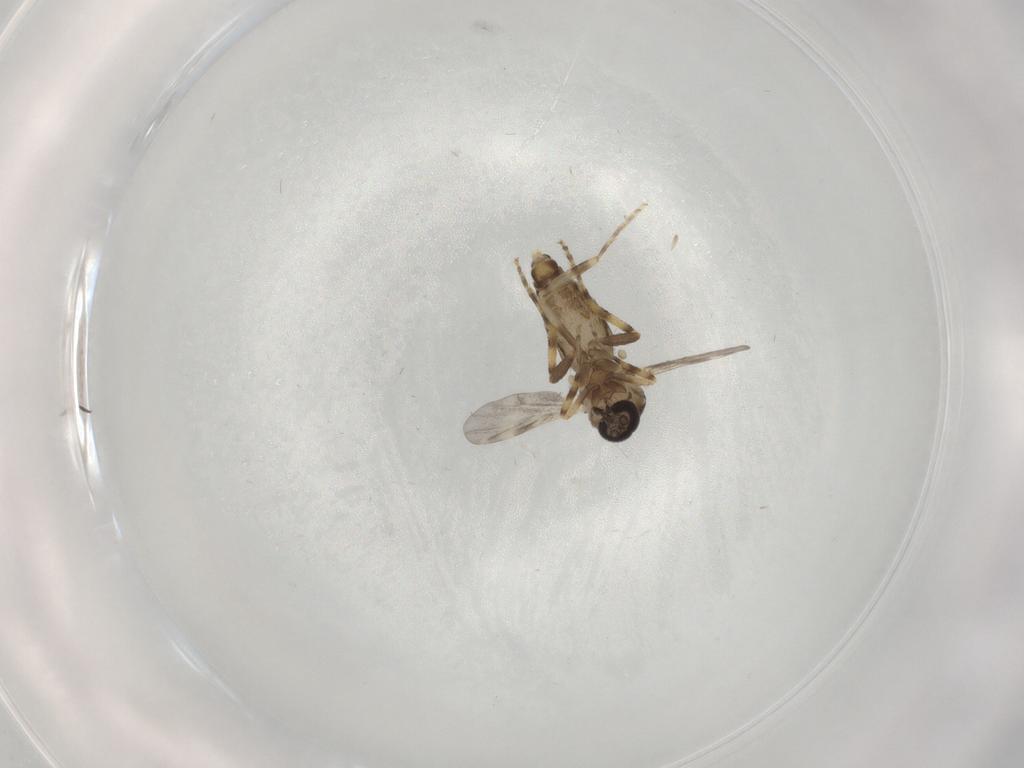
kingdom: Animalia
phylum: Arthropoda
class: Insecta
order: Diptera
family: Ceratopogonidae
